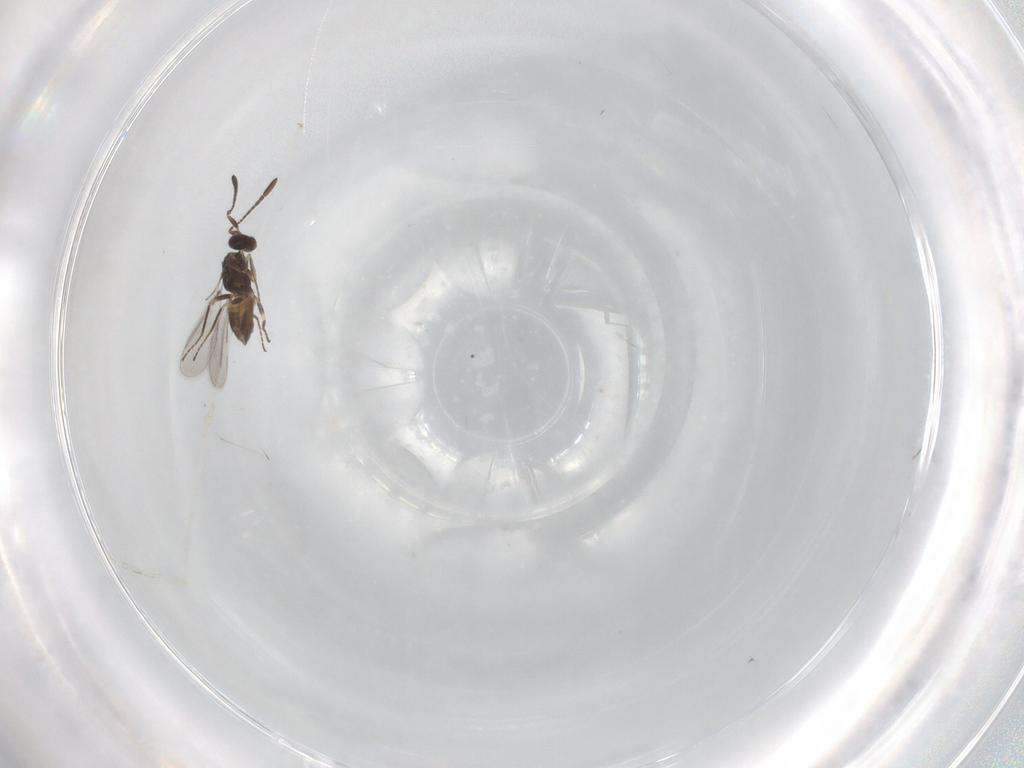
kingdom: Animalia
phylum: Arthropoda
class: Insecta
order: Hymenoptera
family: Mymaridae
